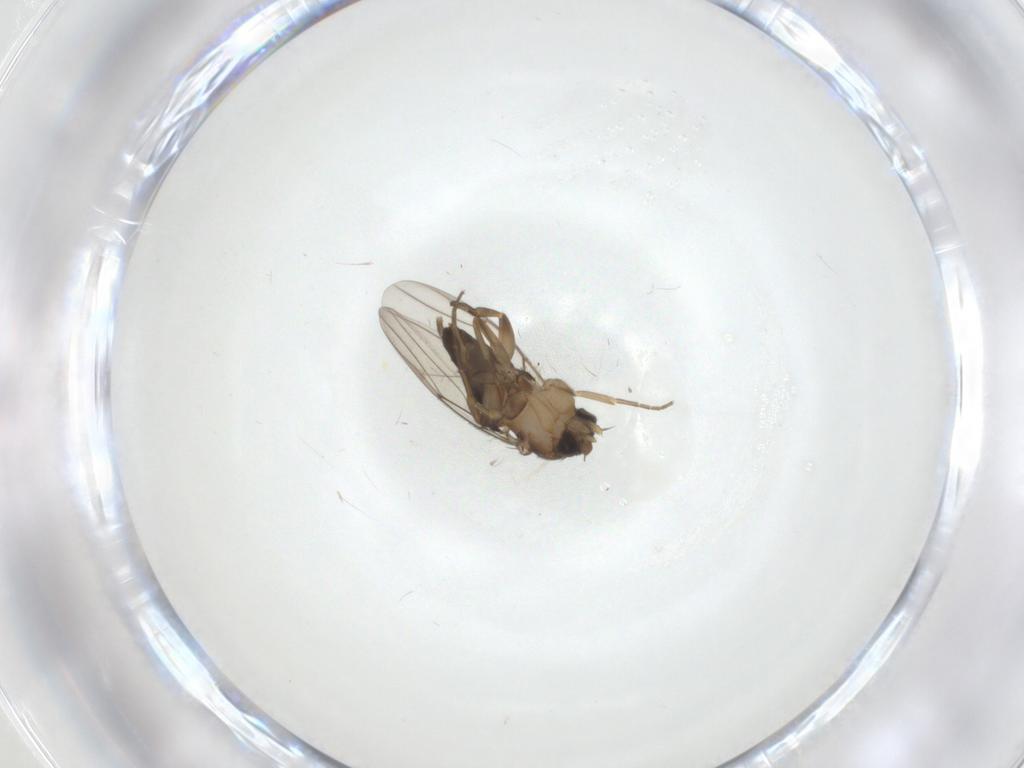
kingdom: Animalia
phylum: Arthropoda
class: Insecta
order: Diptera
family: Phoridae
